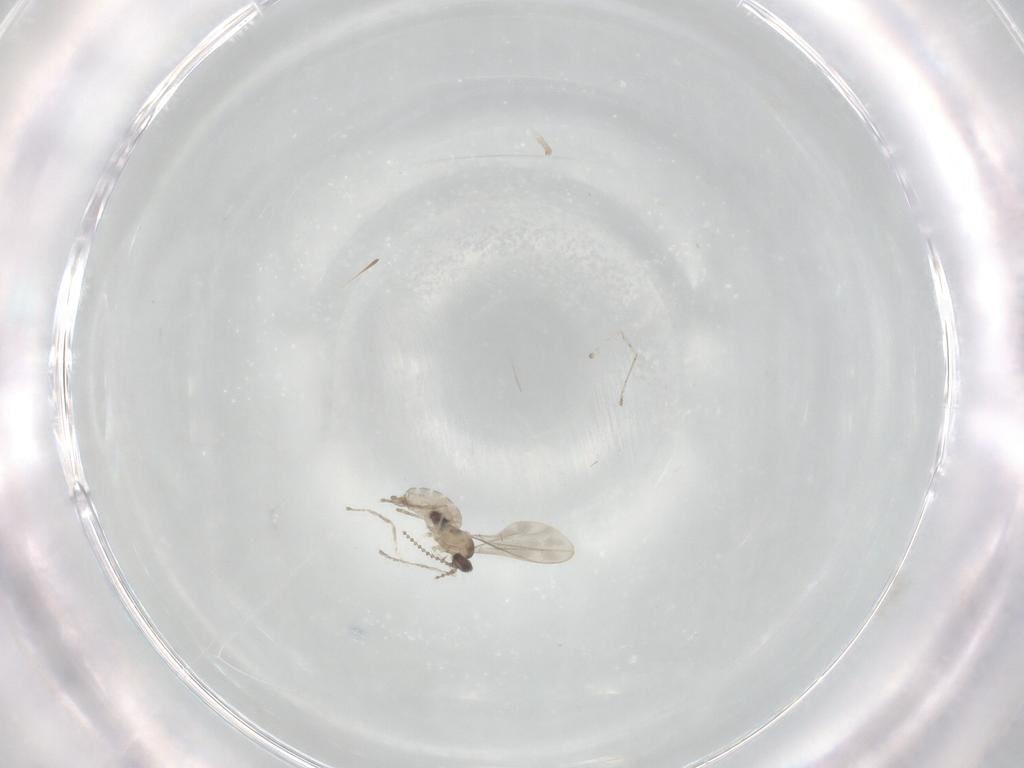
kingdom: Animalia
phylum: Arthropoda
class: Insecta
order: Diptera
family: Cecidomyiidae
